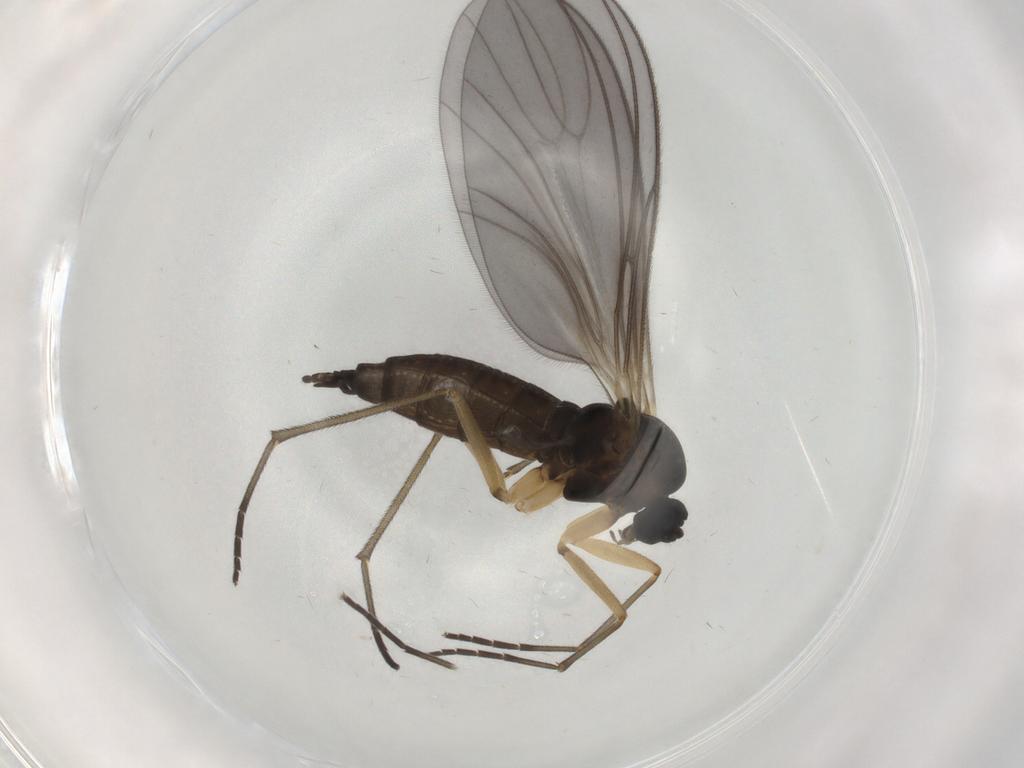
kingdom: Animalia
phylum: Arthropoda
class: Insecta
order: Diptera
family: Sciaridae
